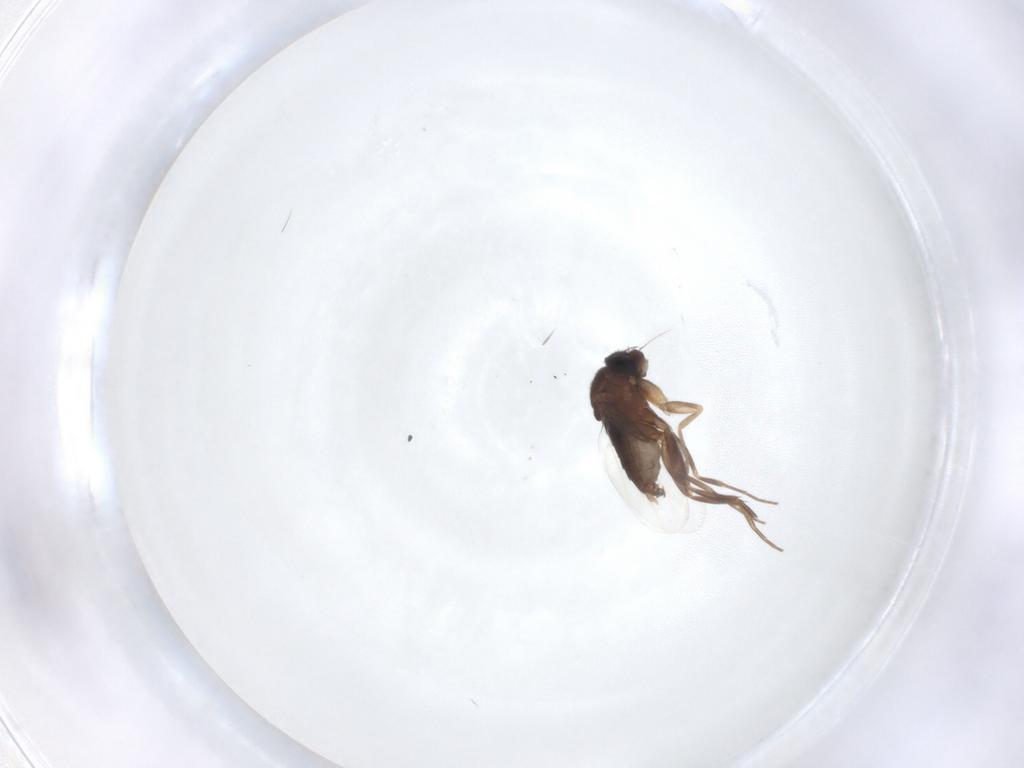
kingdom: Animalia
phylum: Arthropoda
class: Insecta
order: Diptera
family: Phoridae
